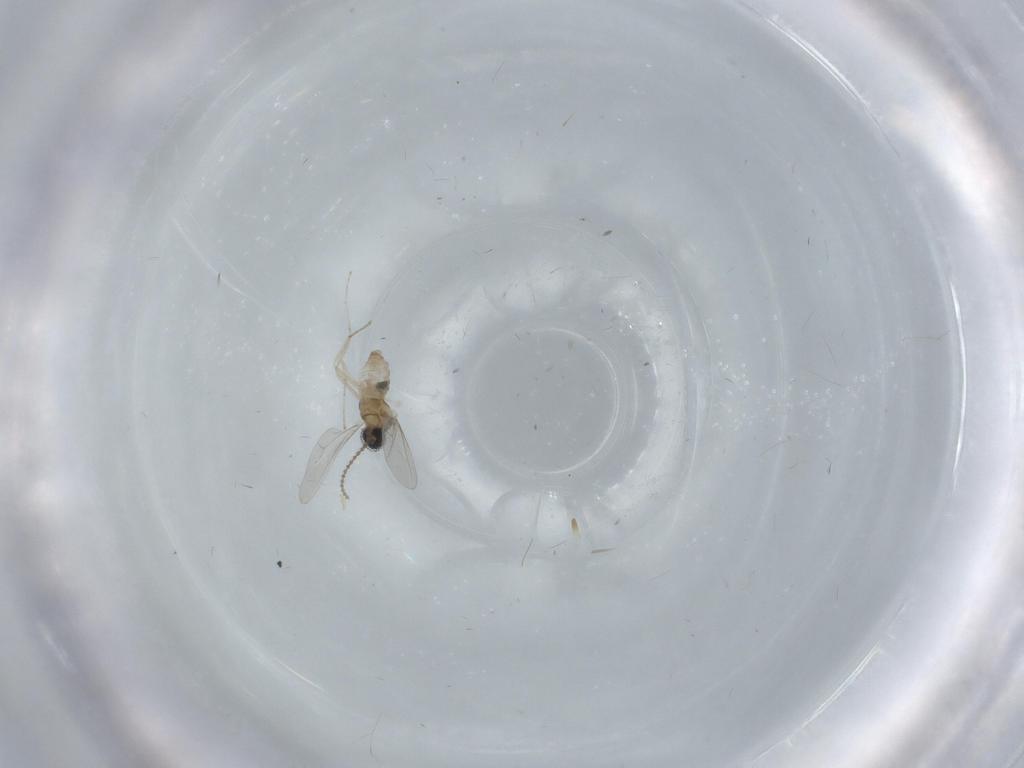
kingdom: Animalia
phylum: Arthropoda
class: Insecta
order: Diptera
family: Cecidomyiidae
